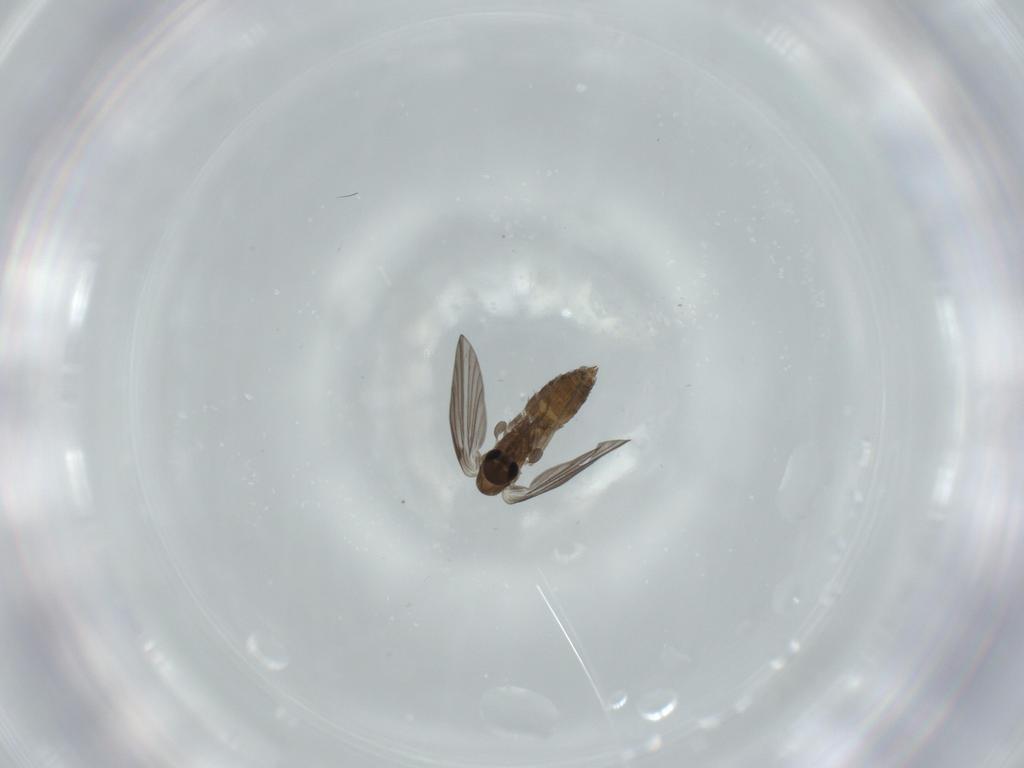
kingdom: Animalia
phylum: Arthropoda
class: Insecta
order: Diptera
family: Psychodidae
